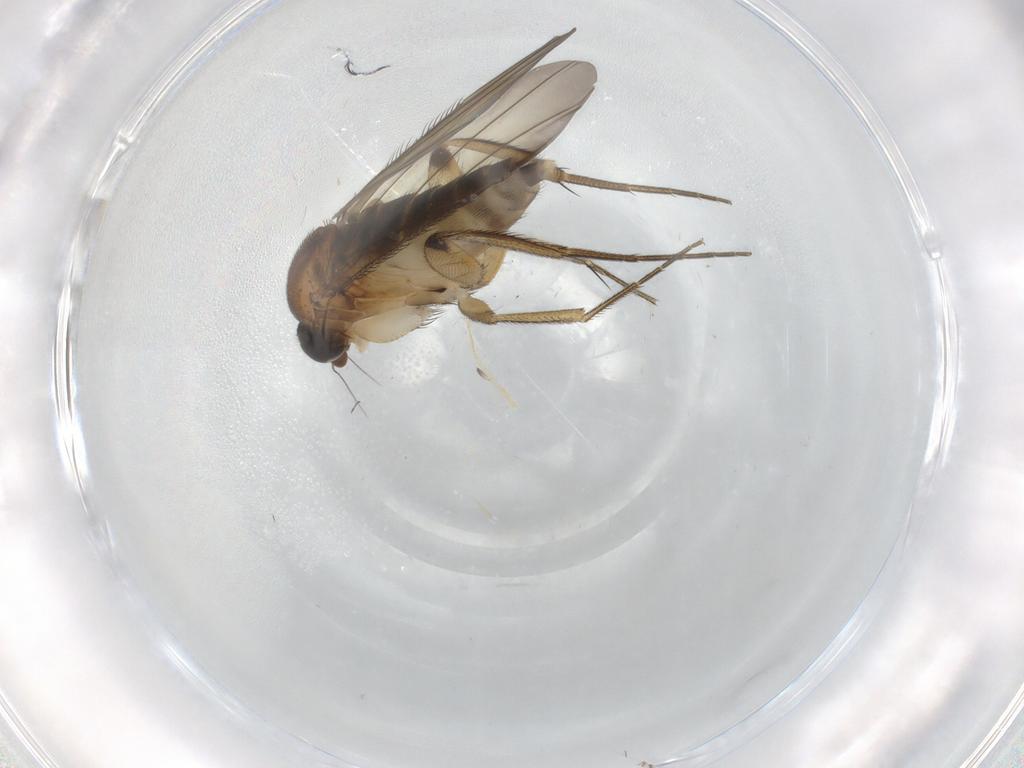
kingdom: Animalia
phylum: Arthropoda
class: Insecta
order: Diptera
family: Phoridae
